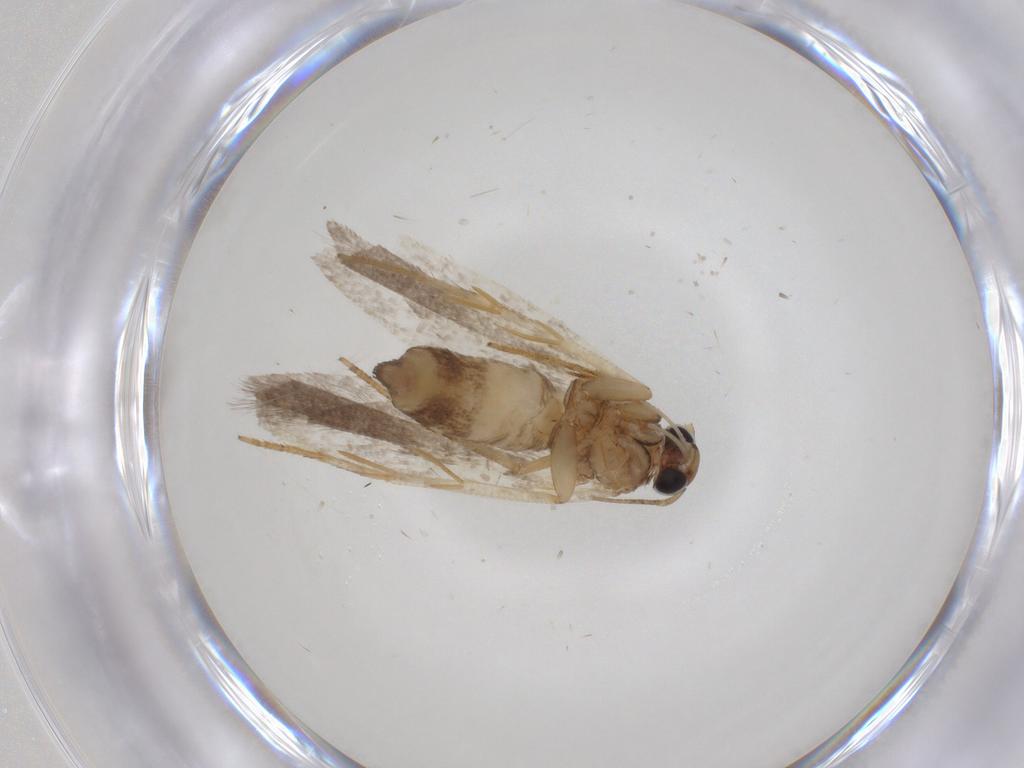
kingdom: Animalia
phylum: Arthropoda
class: Insecta
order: Lepidoptera
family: Gelechiidae
